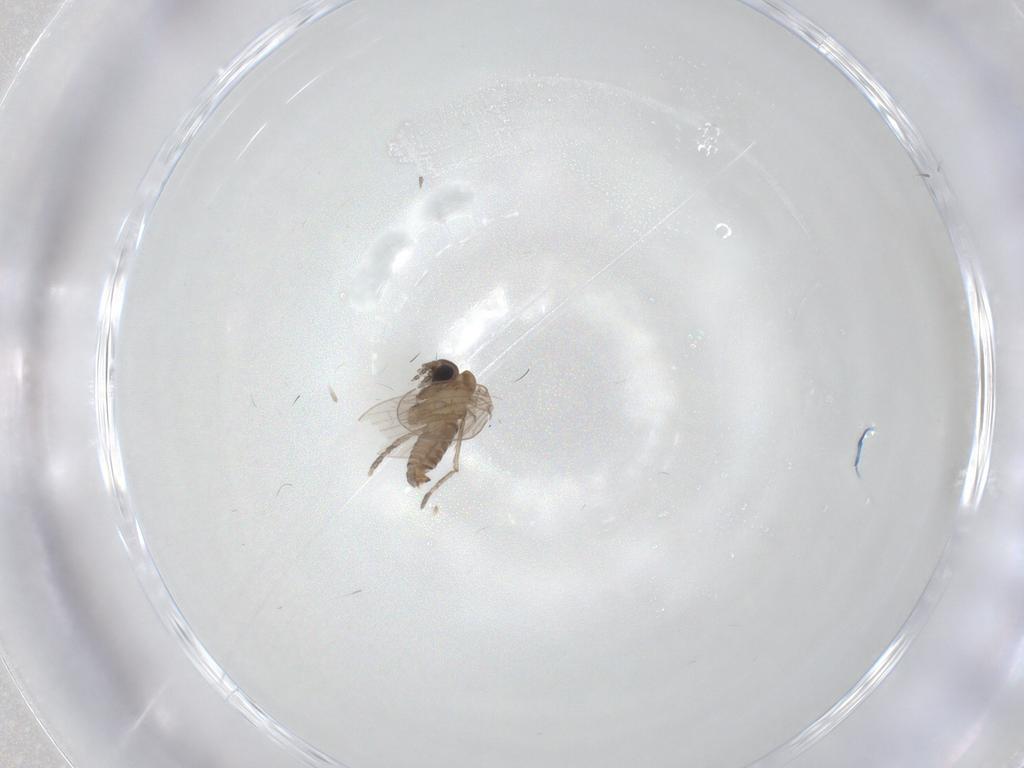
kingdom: Animalia
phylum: Arthropoda
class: Insecta
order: Diptera
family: Psychodidae
